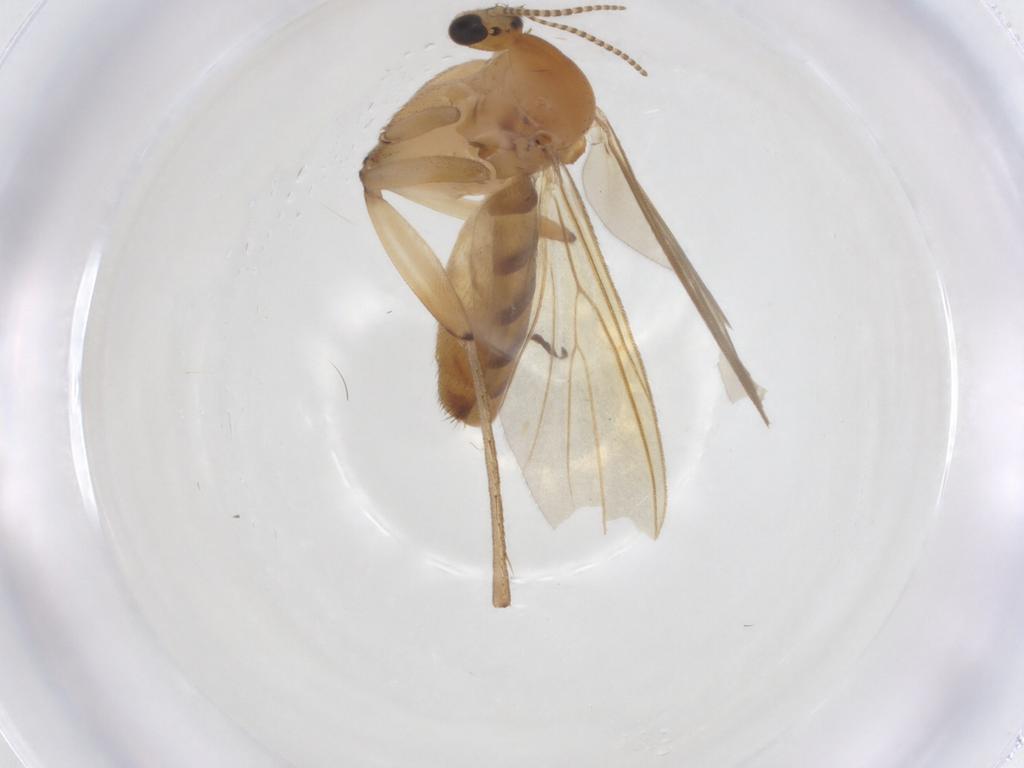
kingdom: Animalia
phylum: Arthropoda
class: Insecta
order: Diptera
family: Mycetophilidae
